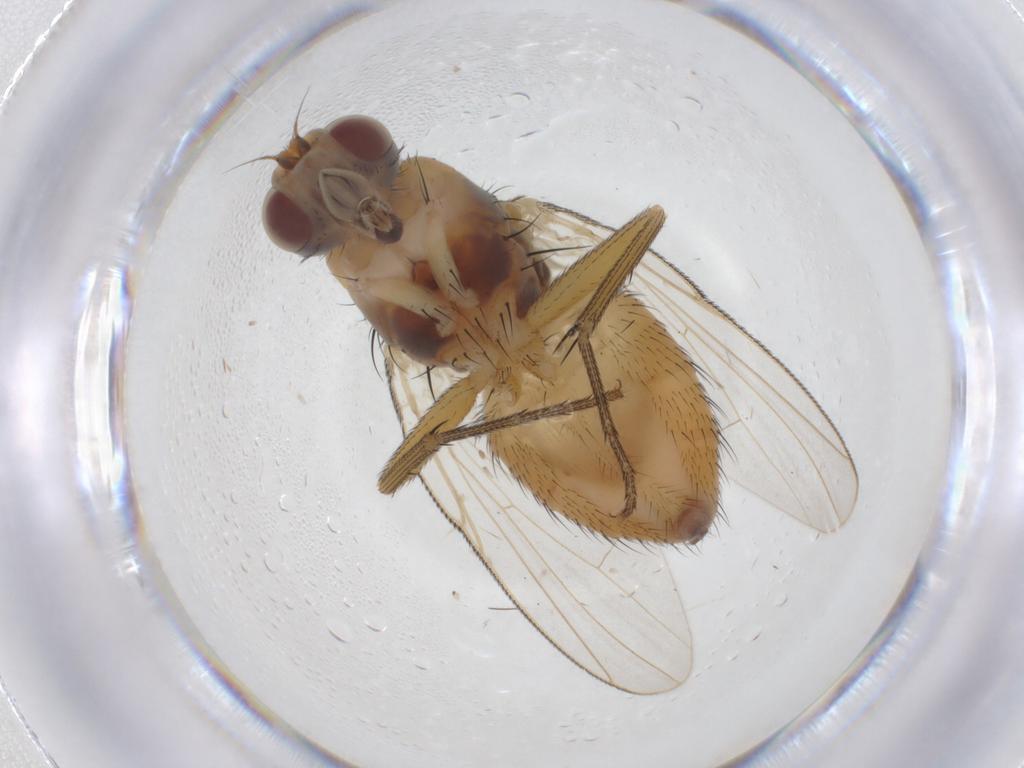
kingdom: Animalia
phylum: Arthropoda
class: Insecta
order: Diptera
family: Muscidae
